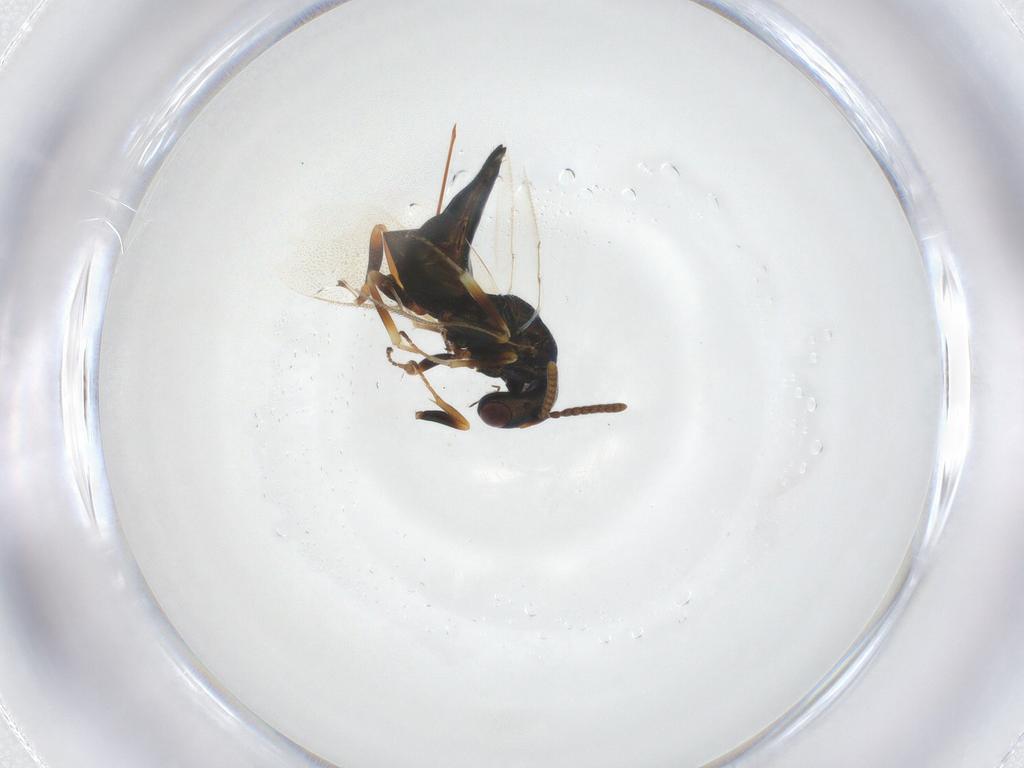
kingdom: Animalia
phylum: Arthropoda
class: Insecta
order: Hymenoptera
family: Pteromalidae
